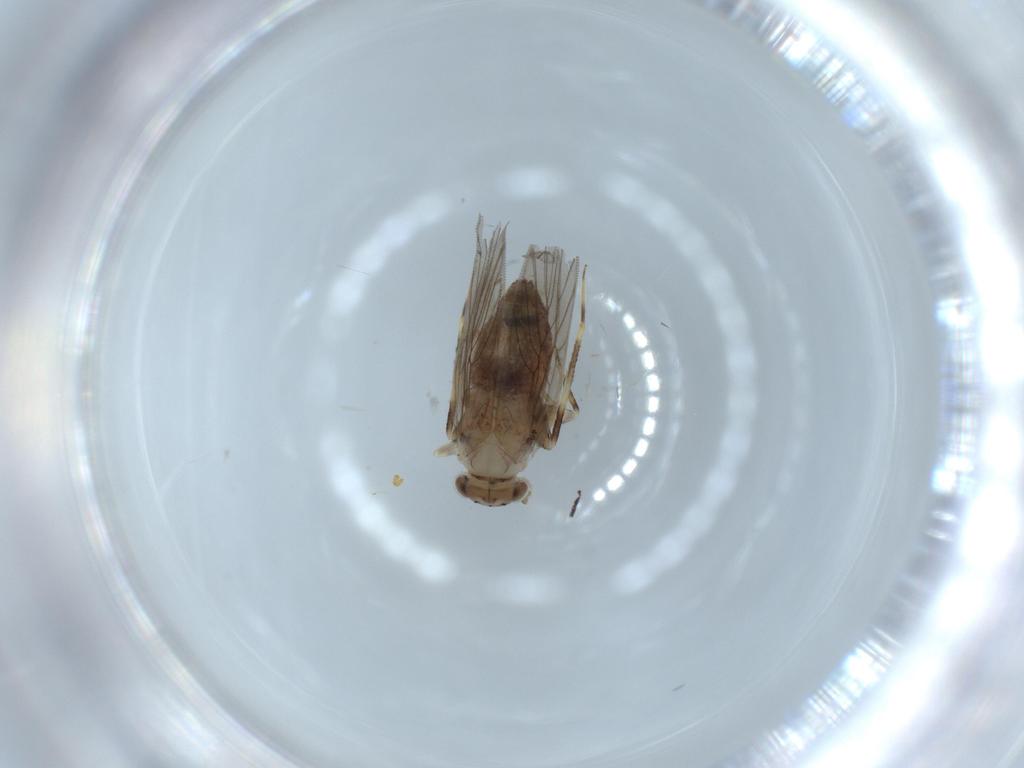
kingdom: Animalia
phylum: Arthropoda
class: Insecta
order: Psocodea
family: Lepidopsocidae
